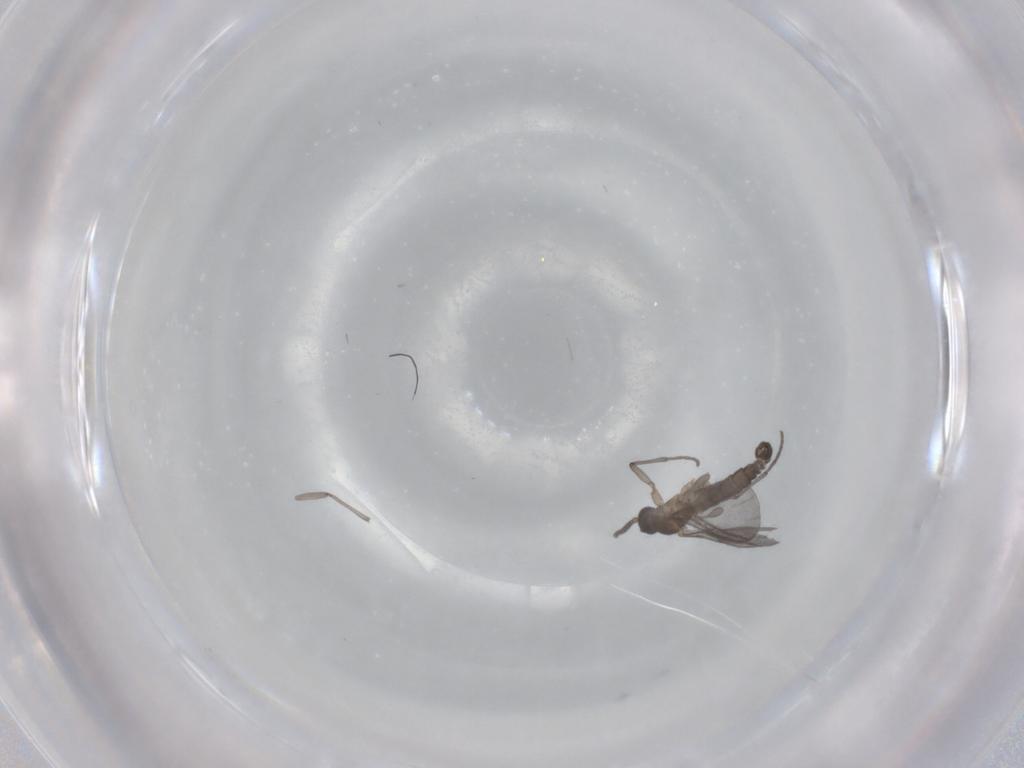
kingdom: Animalia
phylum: Arthropoda
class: Insecta
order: Diptera
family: Sciaridae
